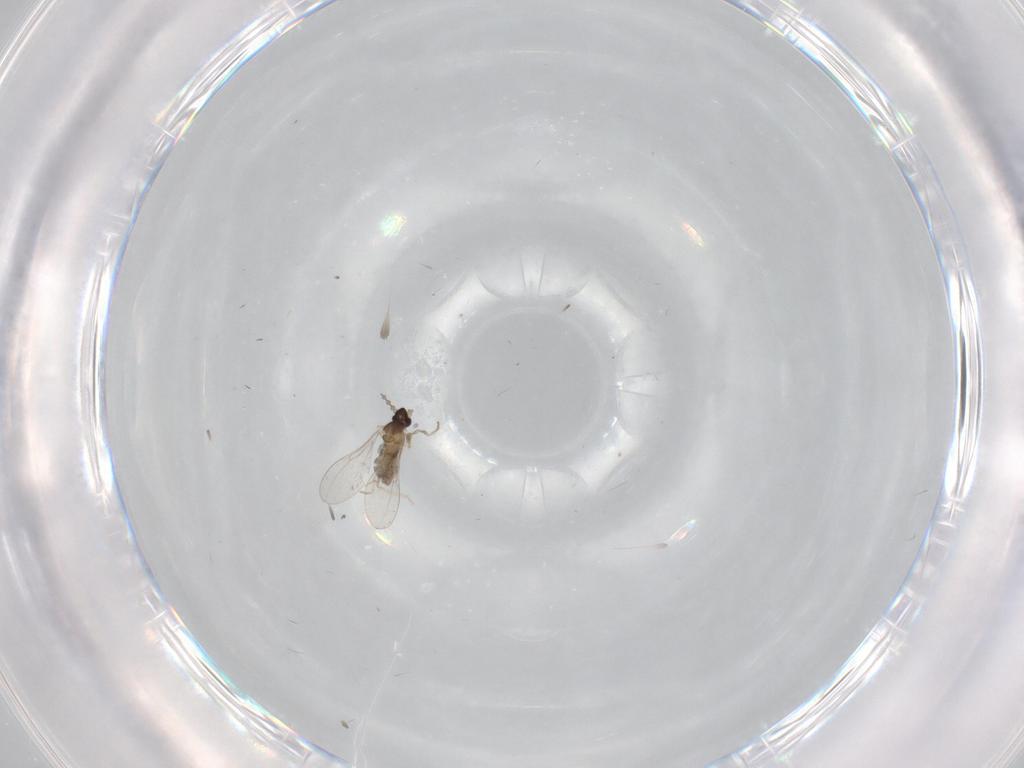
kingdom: Animalia
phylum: Arthropoda
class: Insecta
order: Diptera
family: Cecidomyiidae
